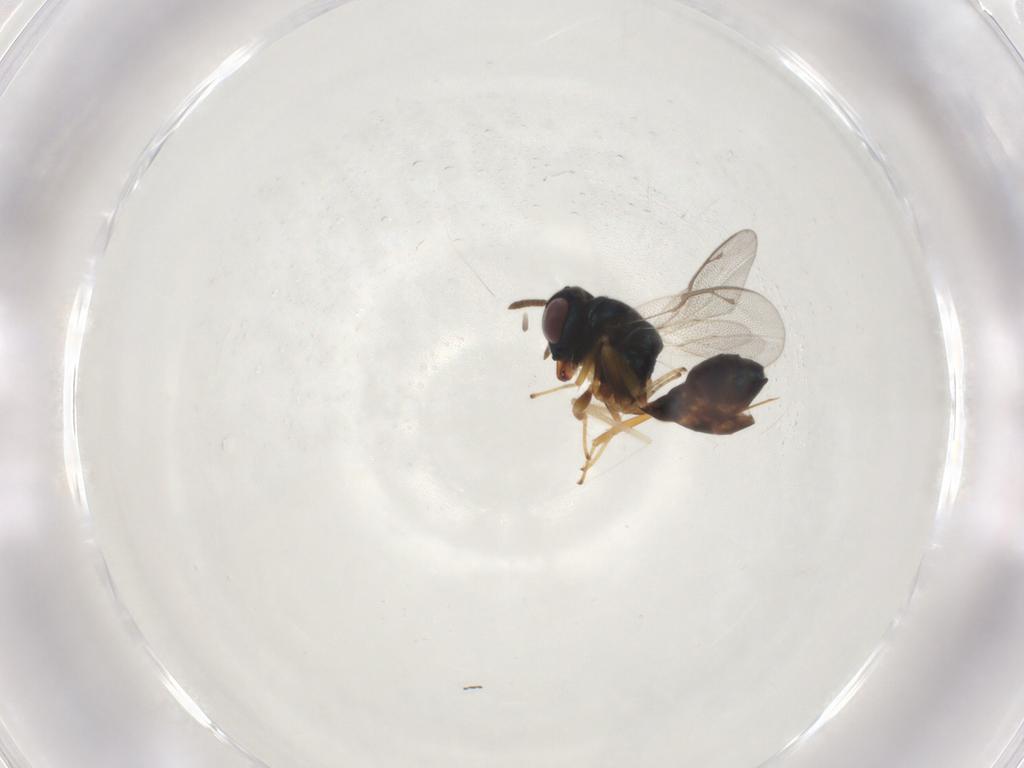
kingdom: Animalia
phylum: Arthropoda
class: Insecta
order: Hymenoptera
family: Pteromalidae
